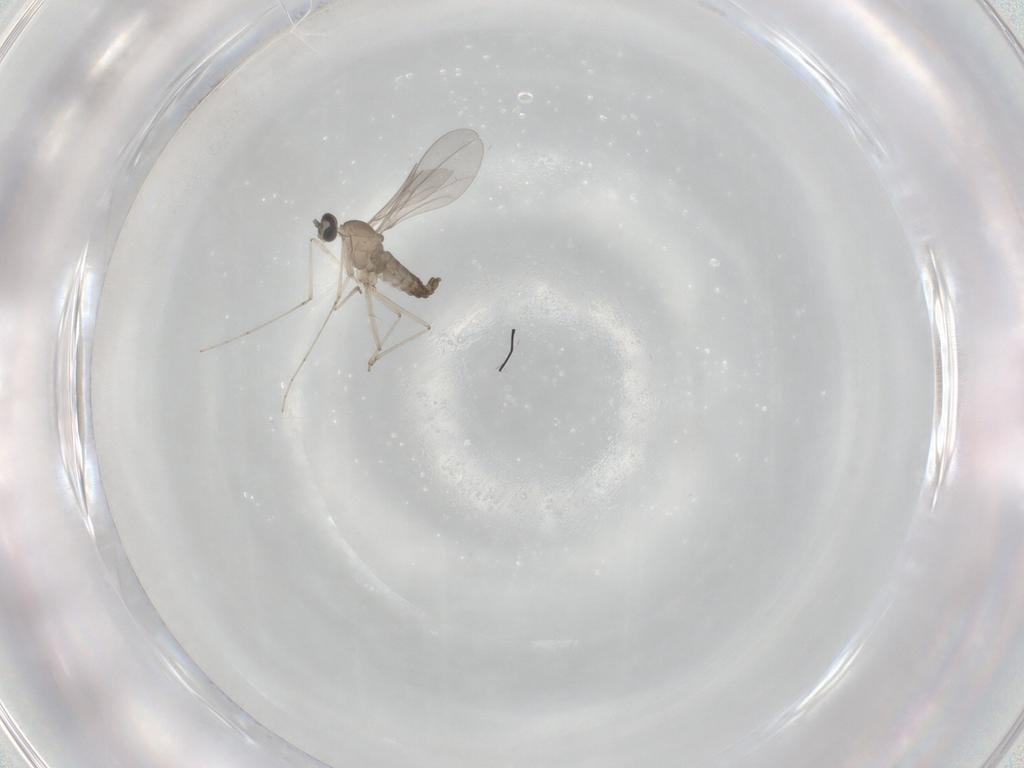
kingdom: Animalia
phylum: Arthropoda
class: Insecta
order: Diptera
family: Cecidomyiidae
